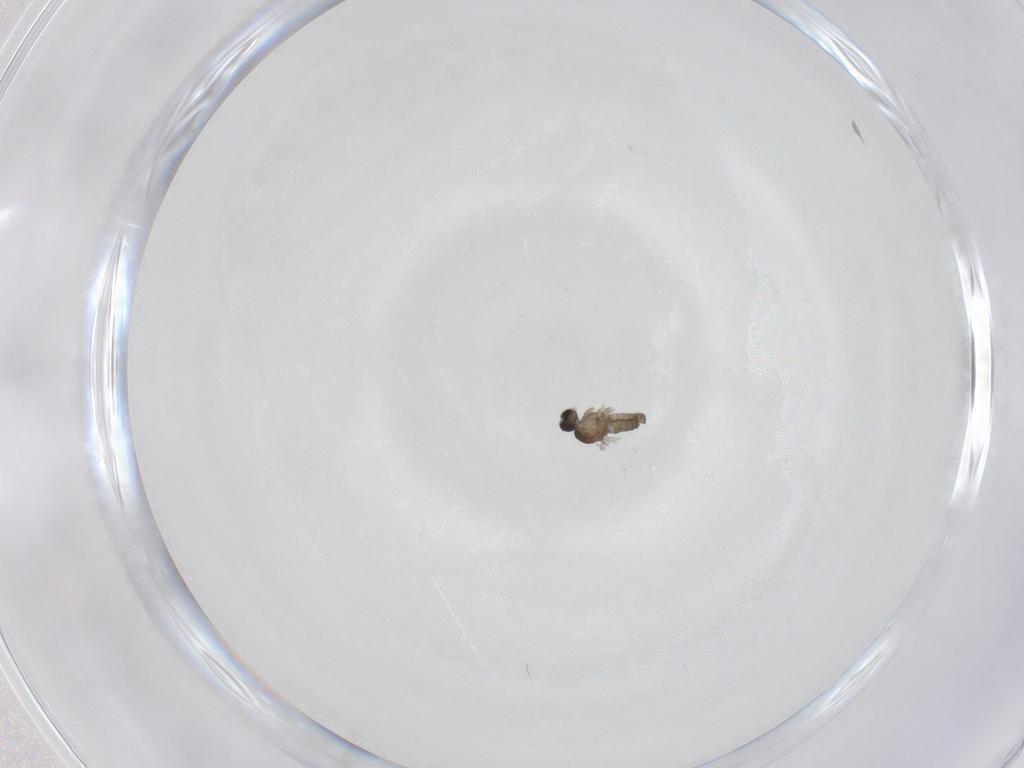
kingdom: Animalia
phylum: Arthropoda
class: Insecta
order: Diptera
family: Cecidomyiidae
